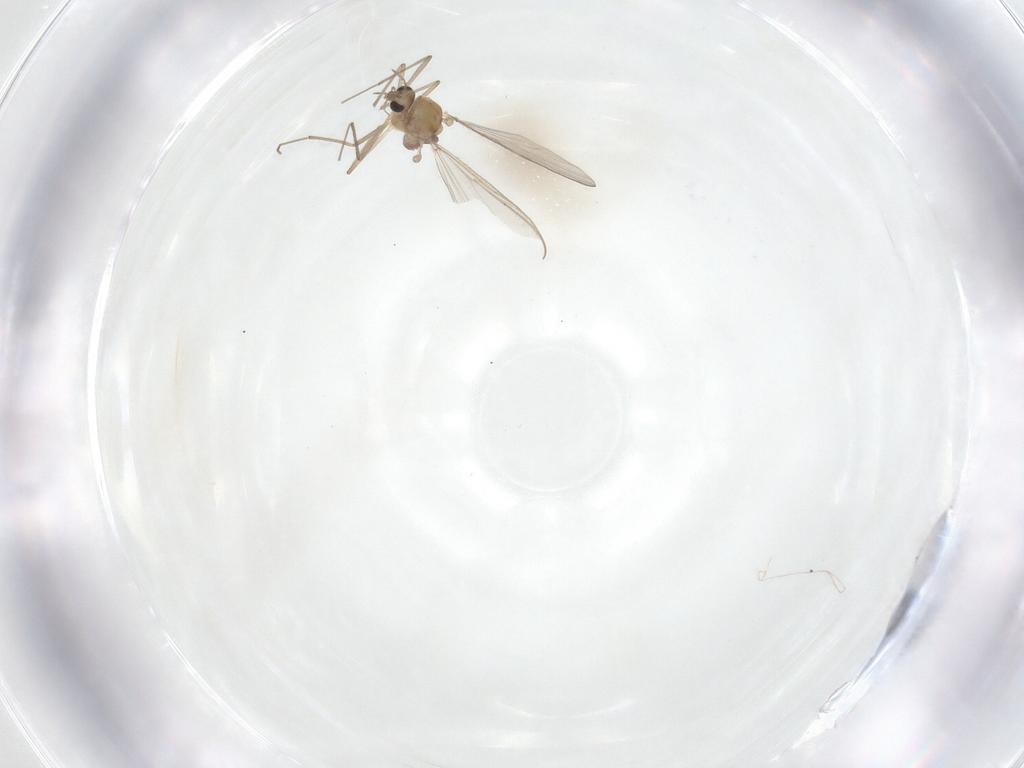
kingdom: Animalia
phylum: Arthropoda
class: Insecta
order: Diptera
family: Chironomidae
